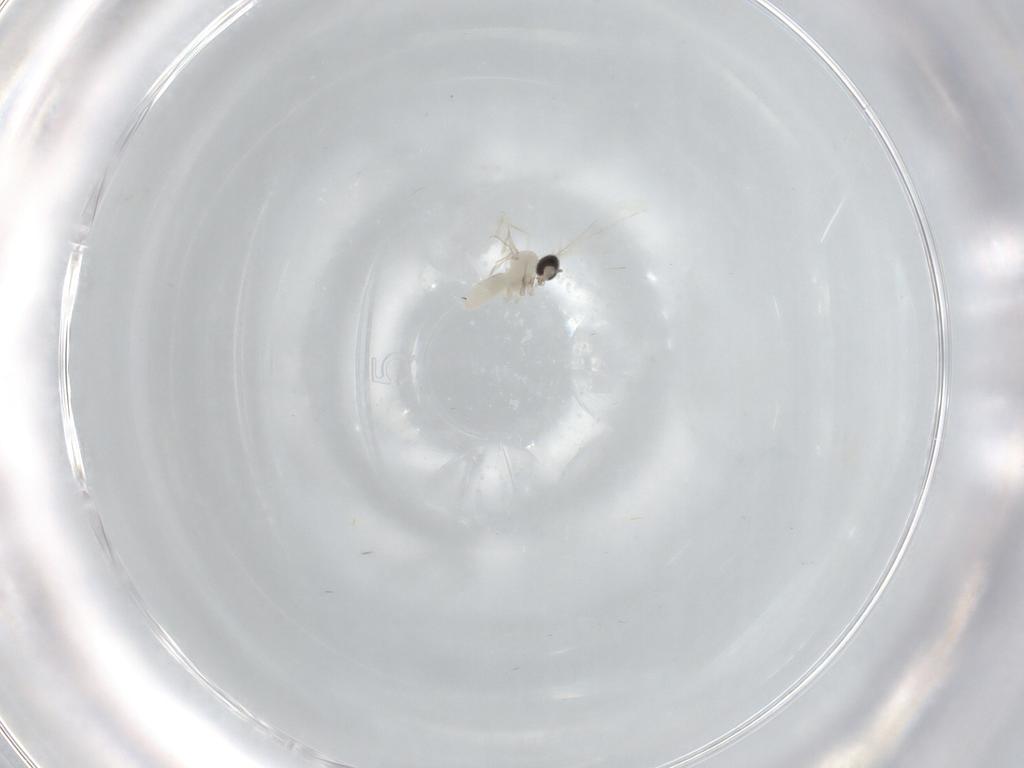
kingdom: Animalia
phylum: Arthropoda
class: Insecta
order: Diptera
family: Cecidomyiidae
